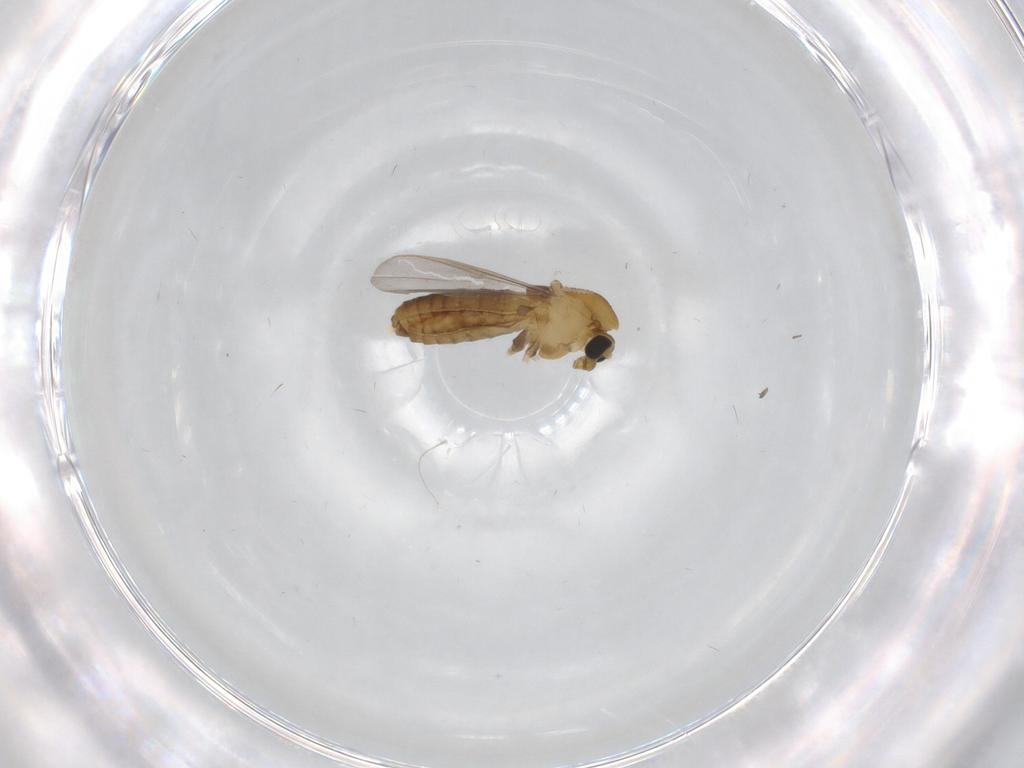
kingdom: Animalia
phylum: Arthropoda
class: Insecta
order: Diptera
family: Chironomidae
